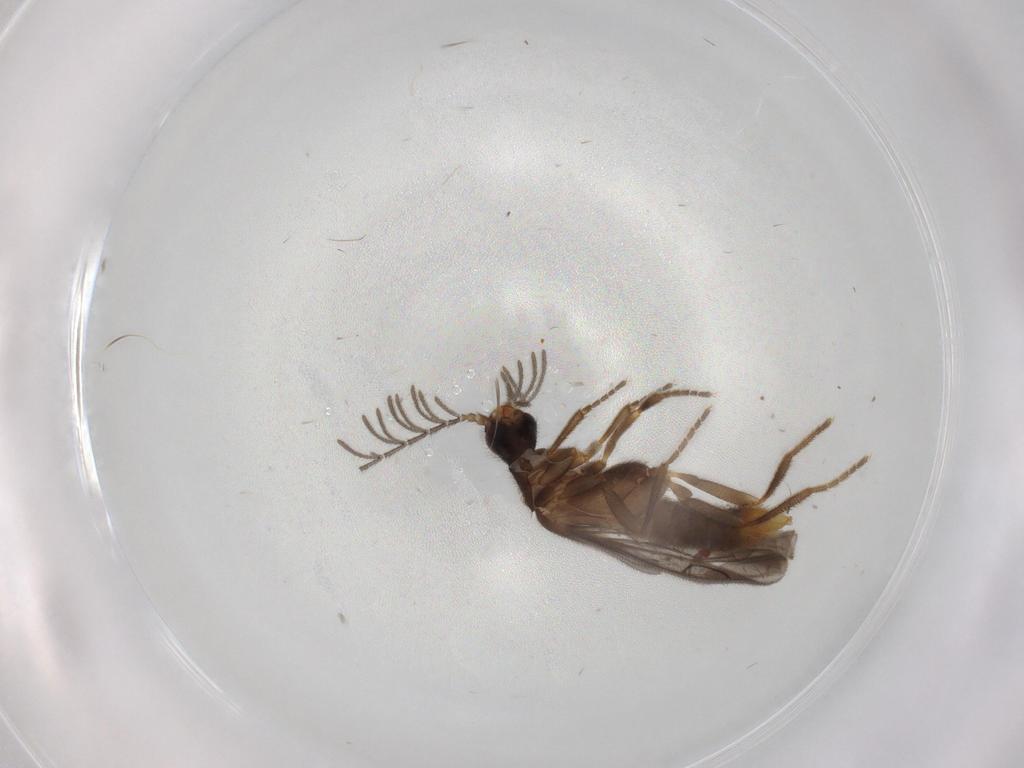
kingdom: Animalia
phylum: Arthropoda
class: Insecta
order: Coleoptera
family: Oedemeridae
